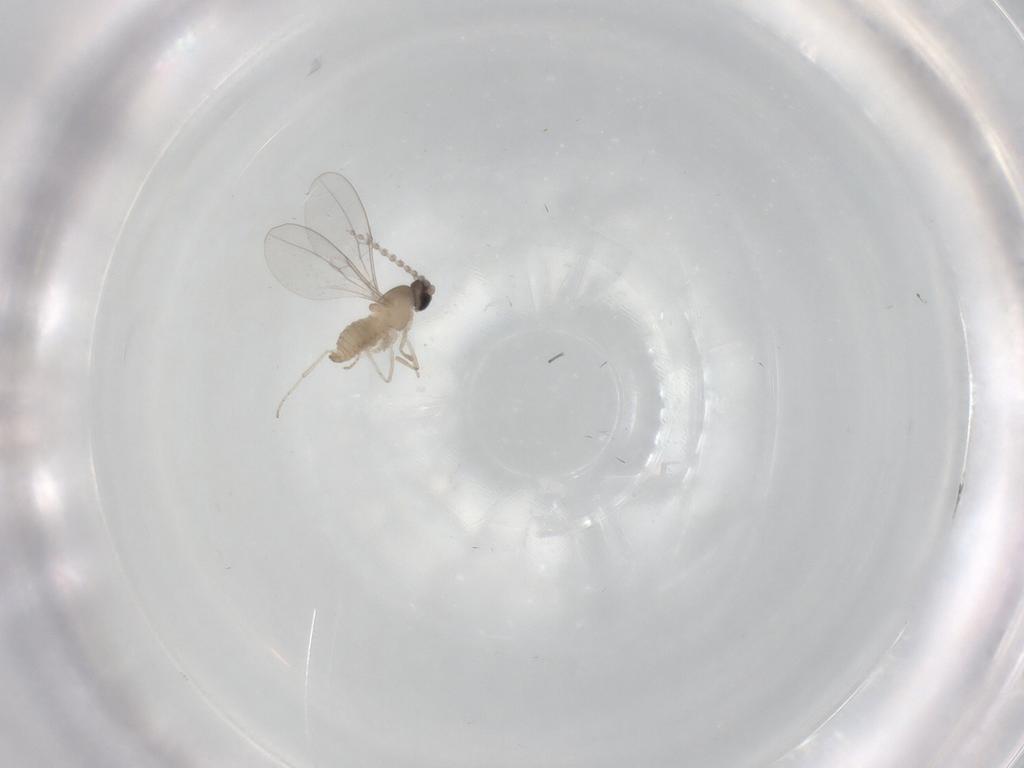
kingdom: Animalia
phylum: Arthropoda
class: Insecta
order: Diptera
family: Cecidomyiidae
